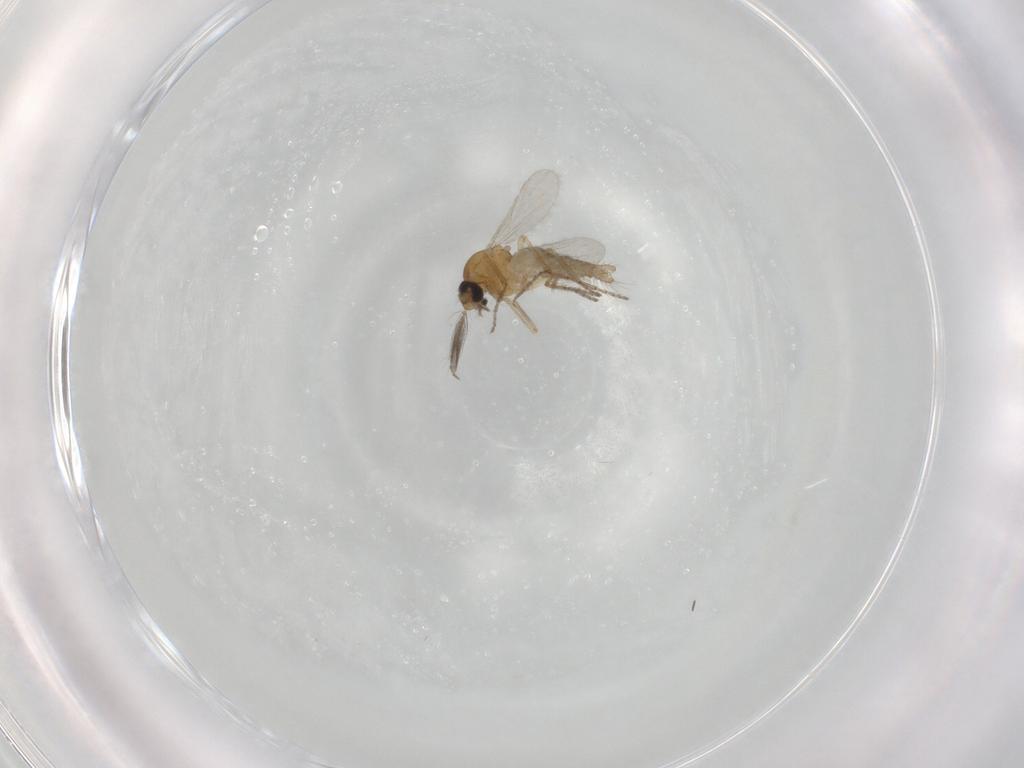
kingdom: Animalia
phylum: Arthropoda
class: Insecta
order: Diptera
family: Ceratopogonidae
